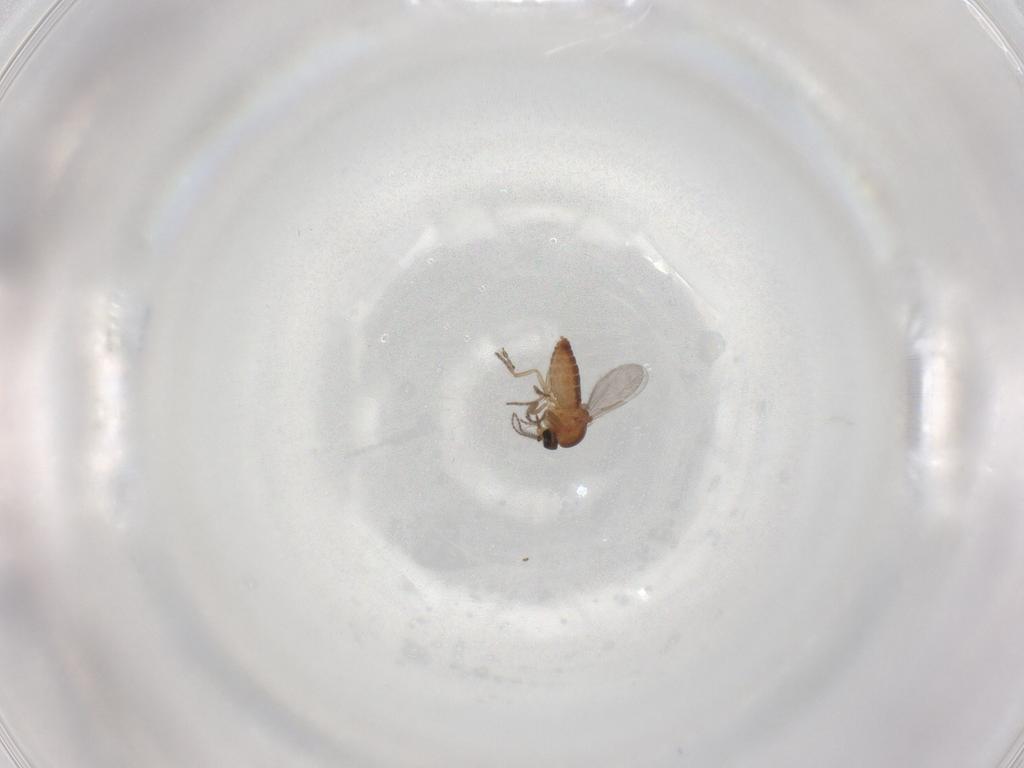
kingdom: Animalia
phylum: Arthropoda
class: Insecta
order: Diptera
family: Ceratopogonidae
